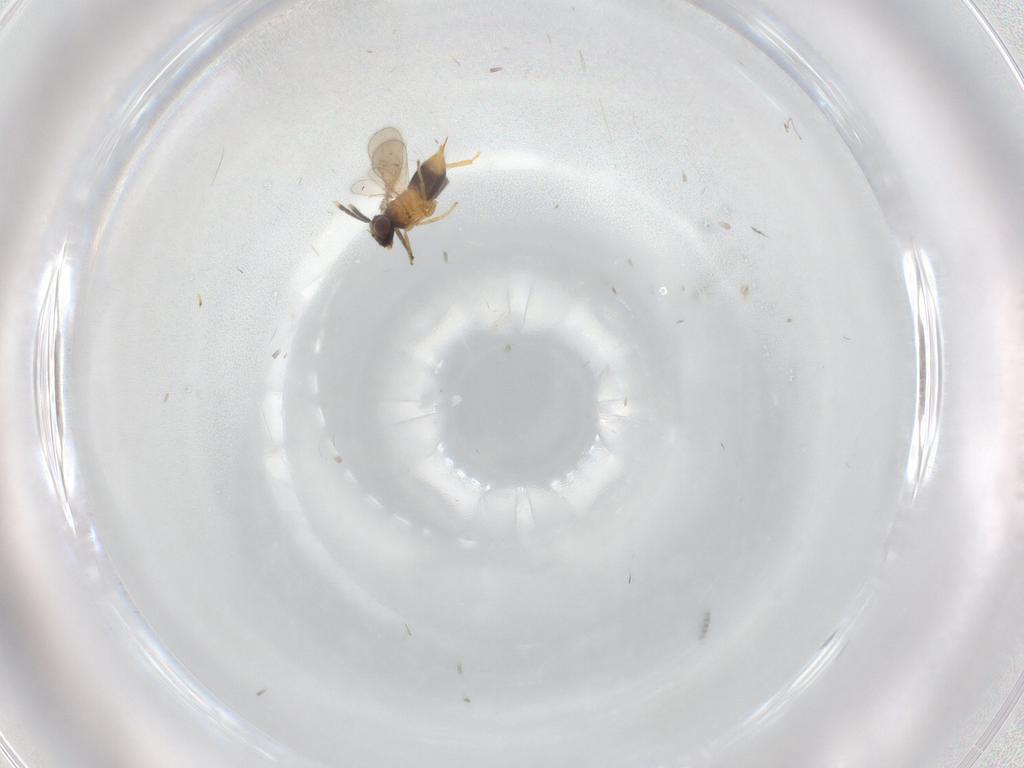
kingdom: Animalia
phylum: Arthropoda
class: Insecta
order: Hymenoptera
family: Aphelinidae
